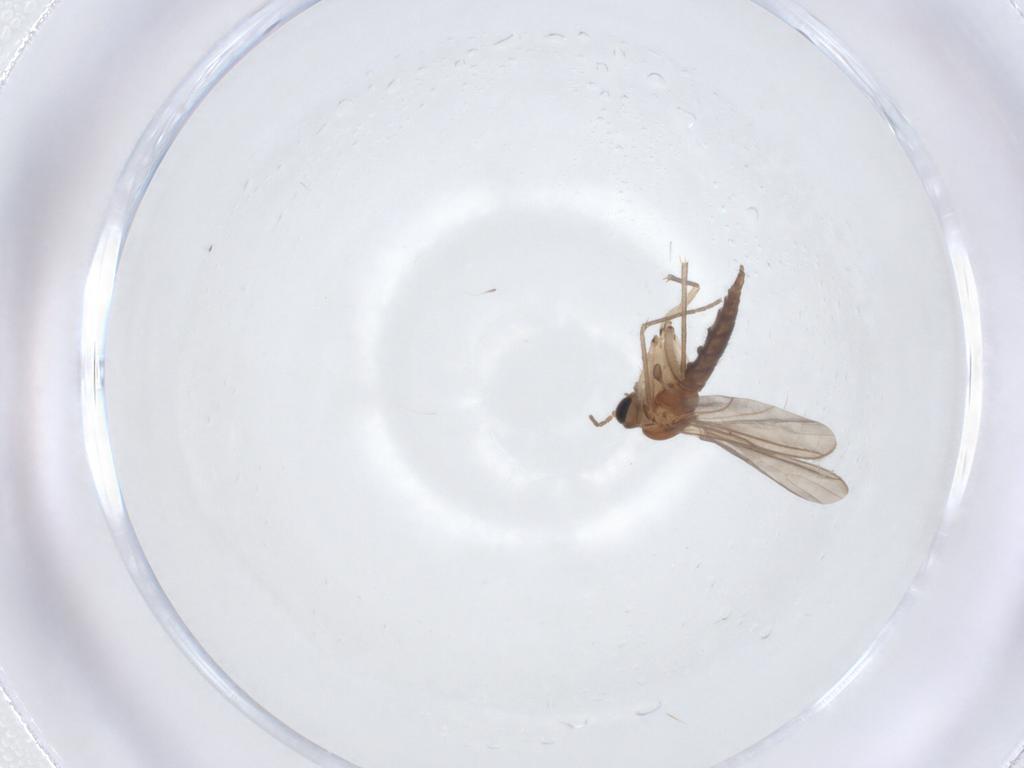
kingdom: Animalia
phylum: Arthropoda
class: Insecta
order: Diptera
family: Sciaridae
